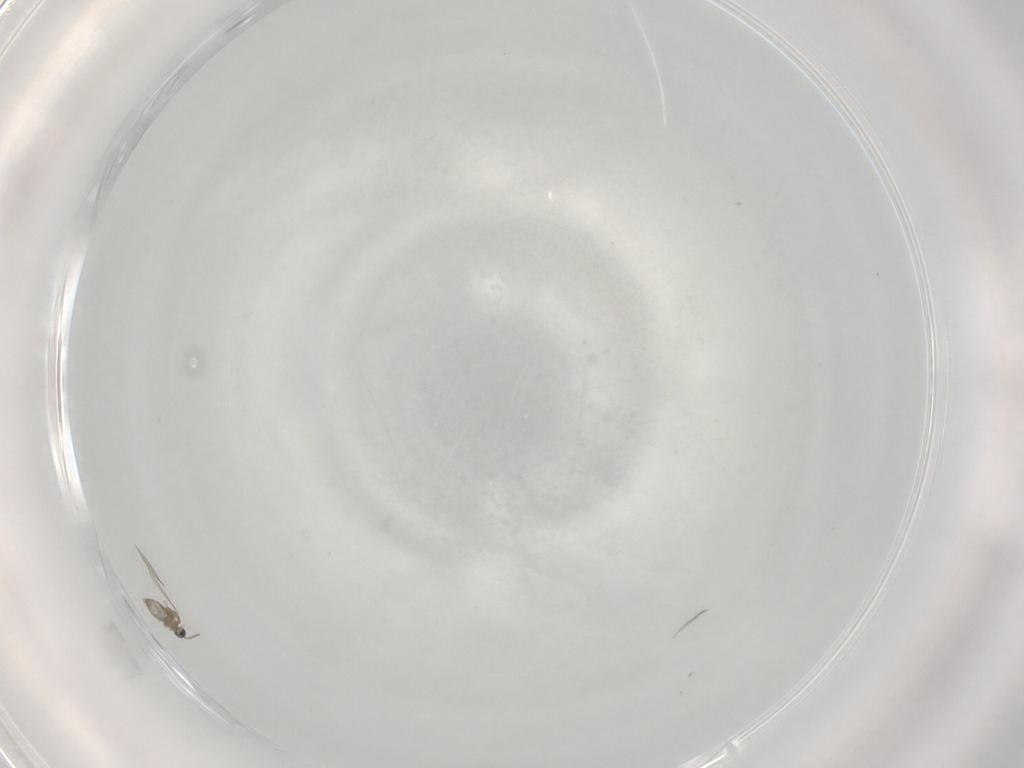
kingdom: Animalia
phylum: Arthropoda
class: Insecta
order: Diptera
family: Cecidomyiidae
